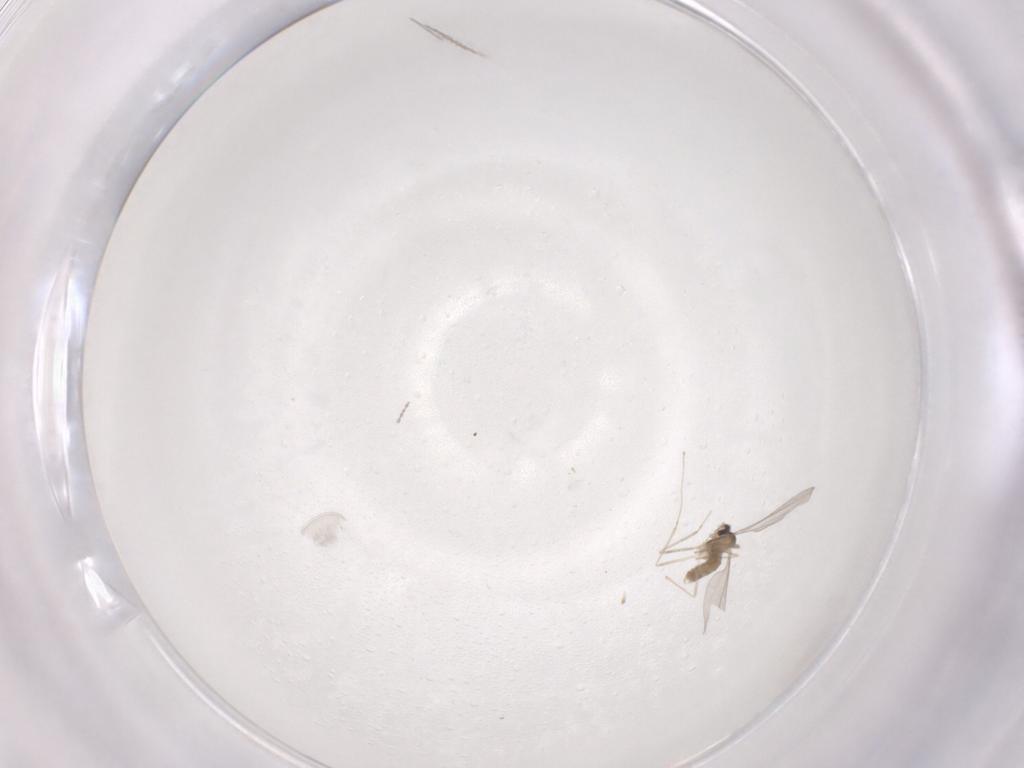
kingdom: Animalia
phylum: Arthropoda
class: Insecta
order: Diptera
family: Cecidomyiidae
